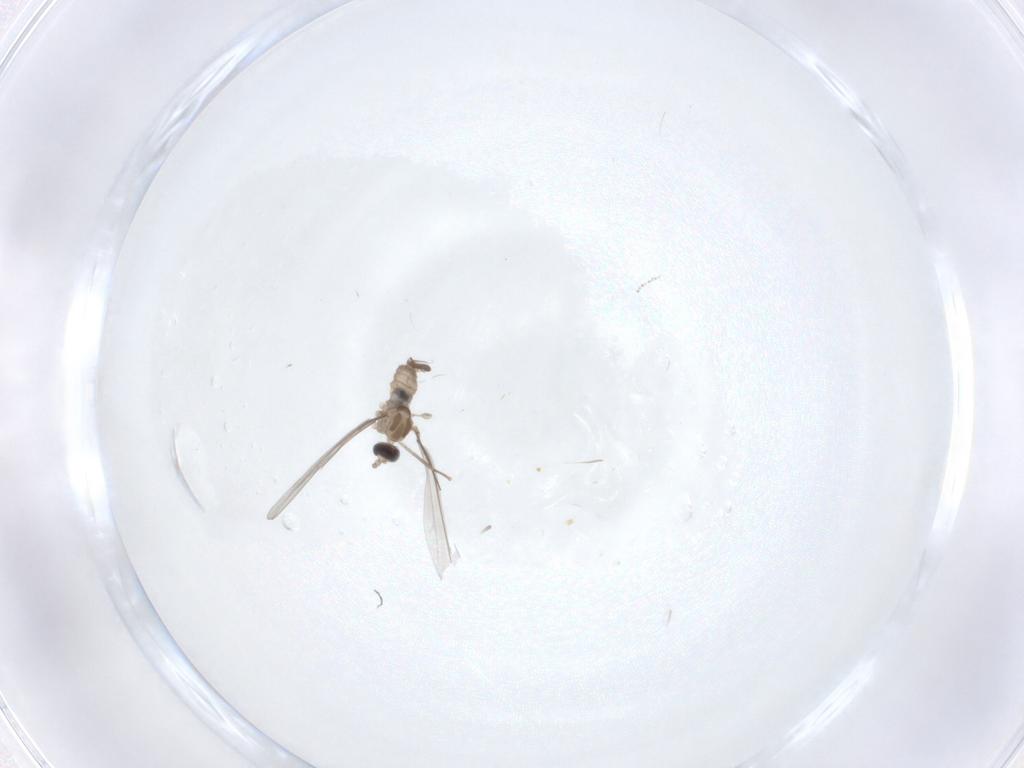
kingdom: Animalia
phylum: Arthropoda
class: Insecta
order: Diptera
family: Cecidomyiidae
